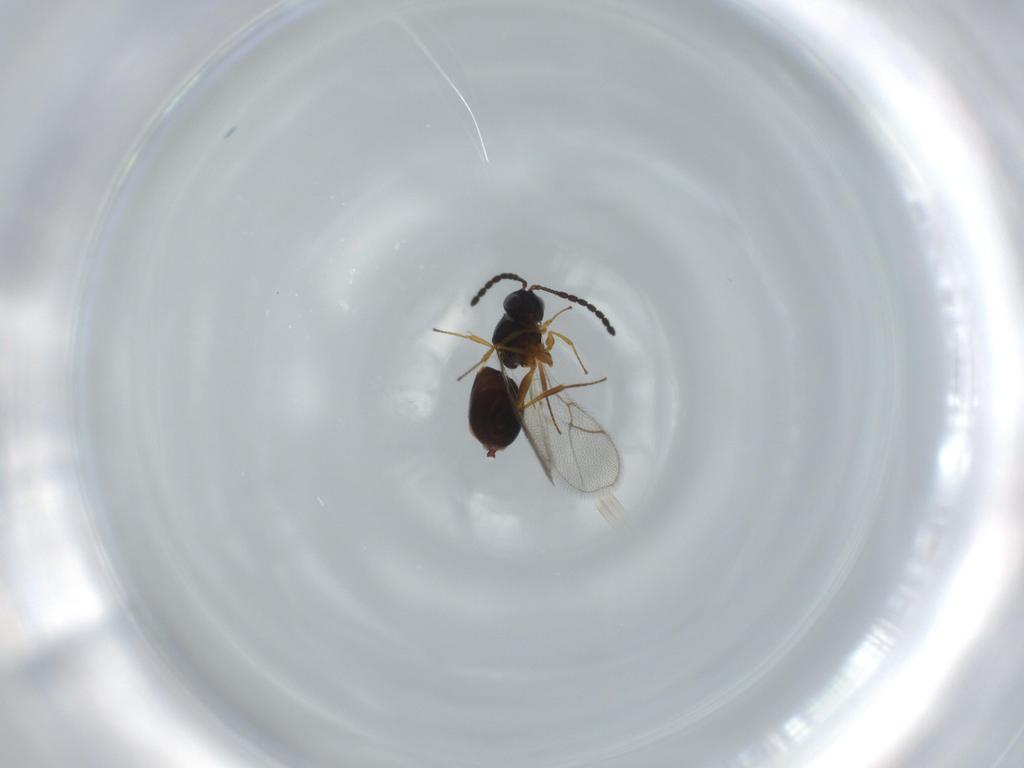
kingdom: Animalia
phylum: Arthropoda
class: Insecta
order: Hymenoptera
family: Figitidae
